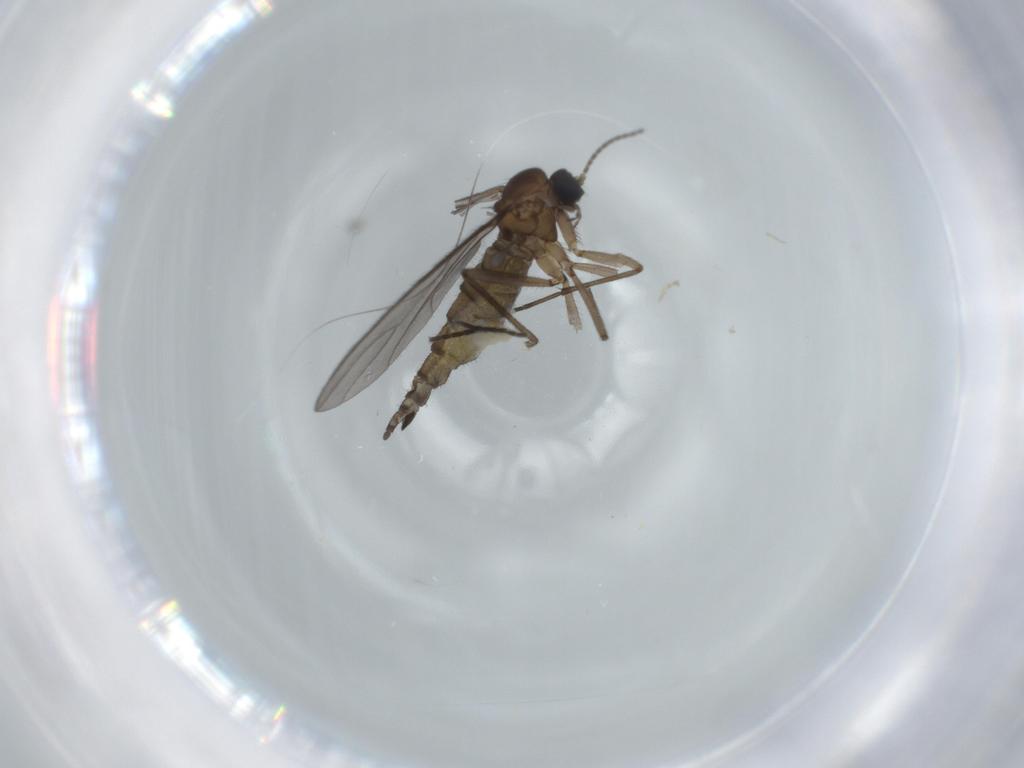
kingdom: Animalia
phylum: Arthropoda
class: Insecta
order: Diptera
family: Sciaridae
